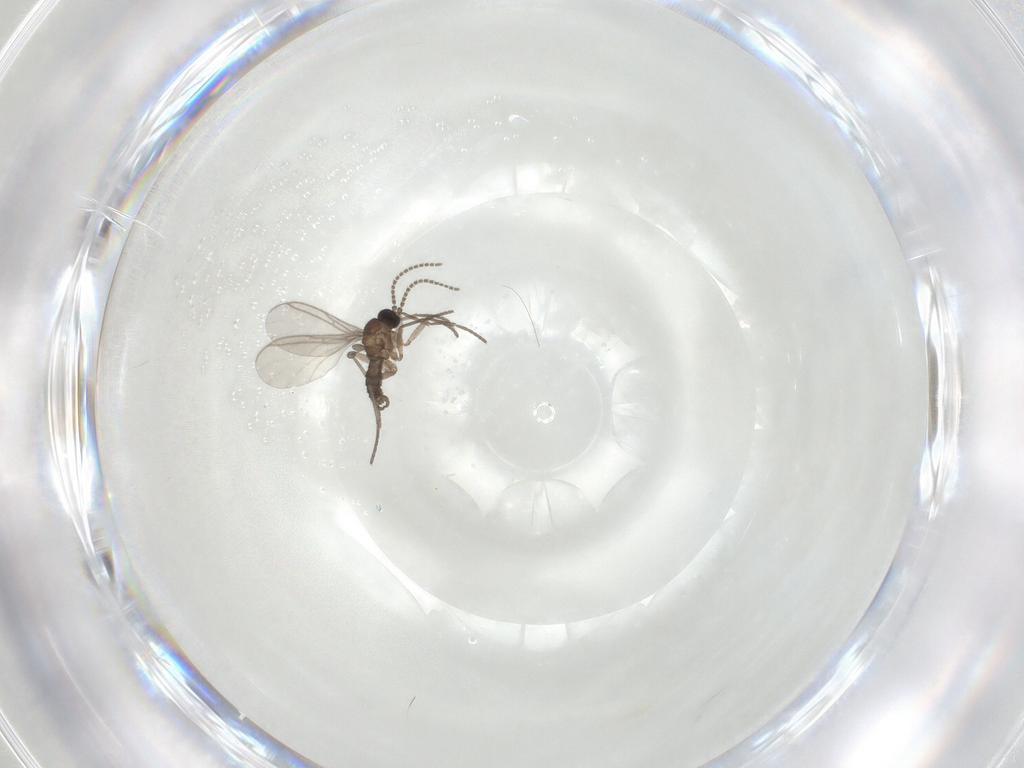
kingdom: Animalia
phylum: Arthropoda
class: Insecta
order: Diptera
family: Sciaridae
